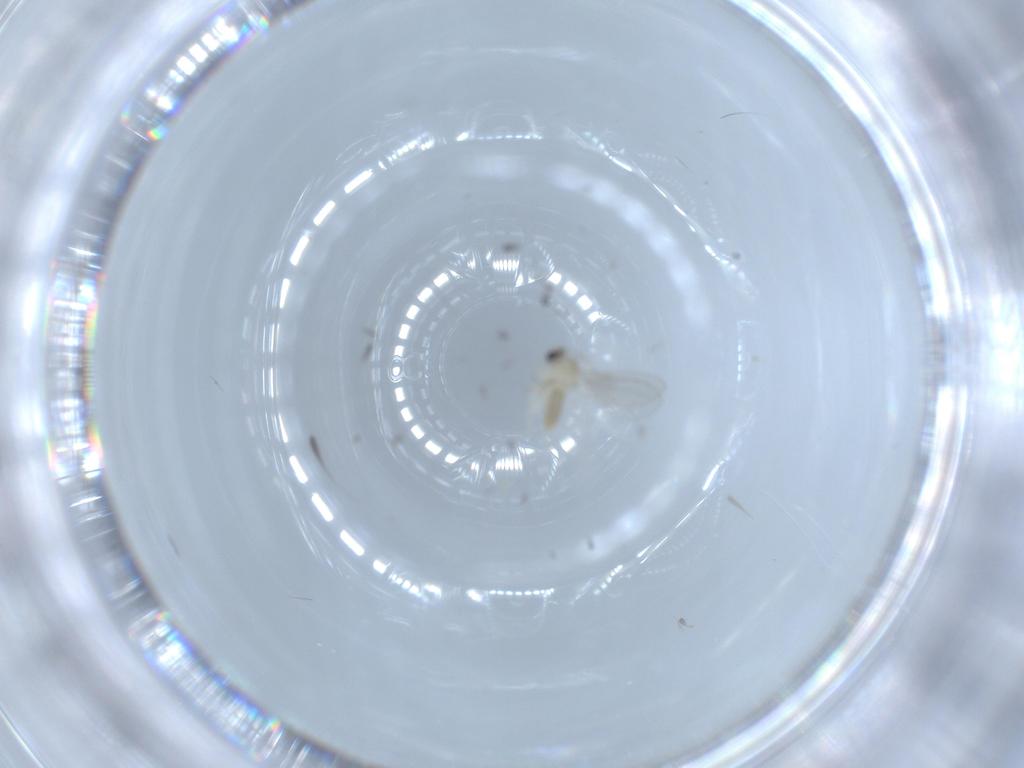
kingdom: Animalia
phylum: Arthropoda
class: Insecta
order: Diptera
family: Cecidomyiidae
